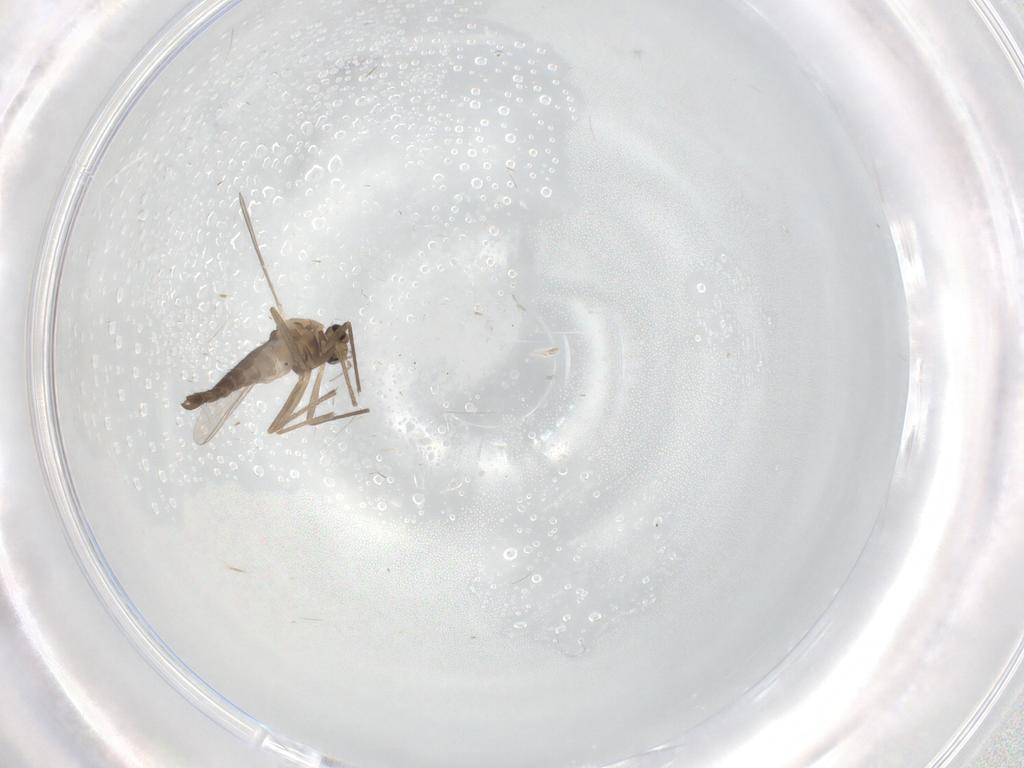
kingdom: Animalia
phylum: Arthropoda
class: Insecta
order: Diptera
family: Chironomidae
